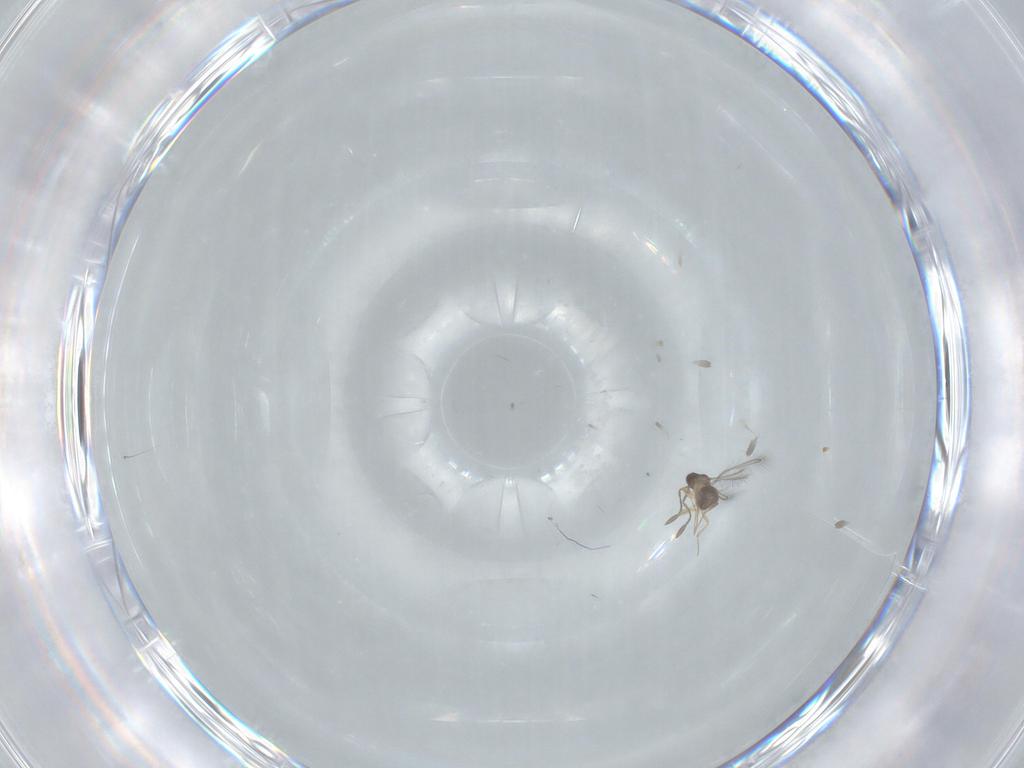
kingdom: Animalia
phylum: Arthropoda
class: Insecta
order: Hymenoptera
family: Mymaridae
